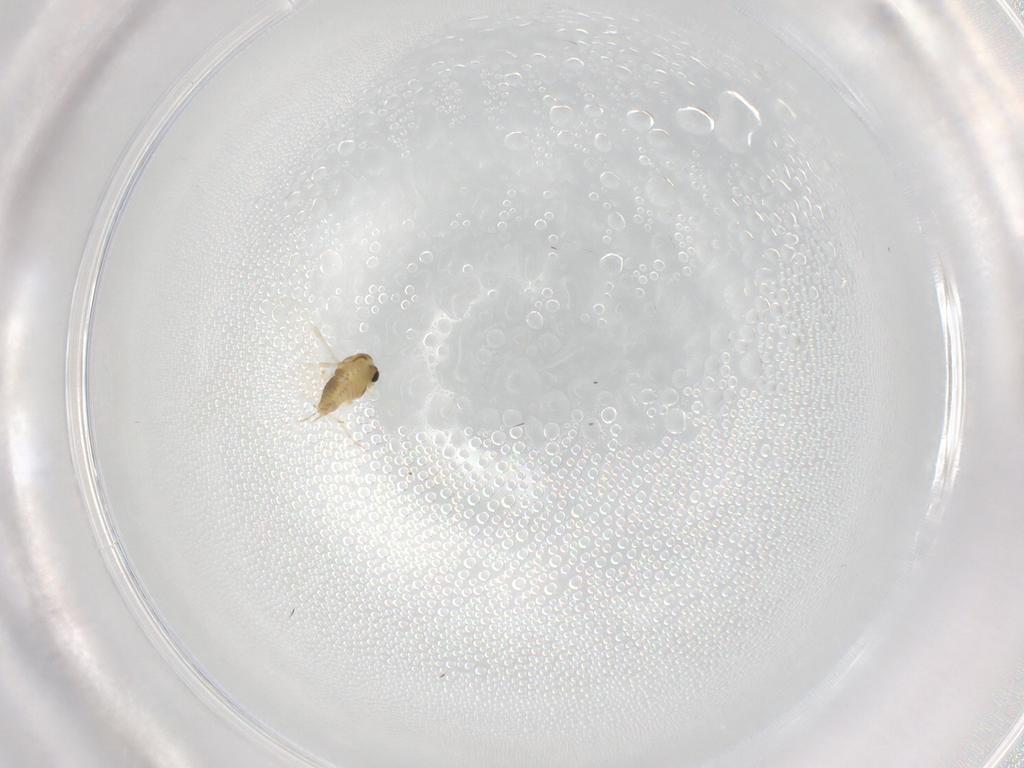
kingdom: Animalia
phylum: Arthropoda
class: Insecta
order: Diptera
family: Chironomidae
